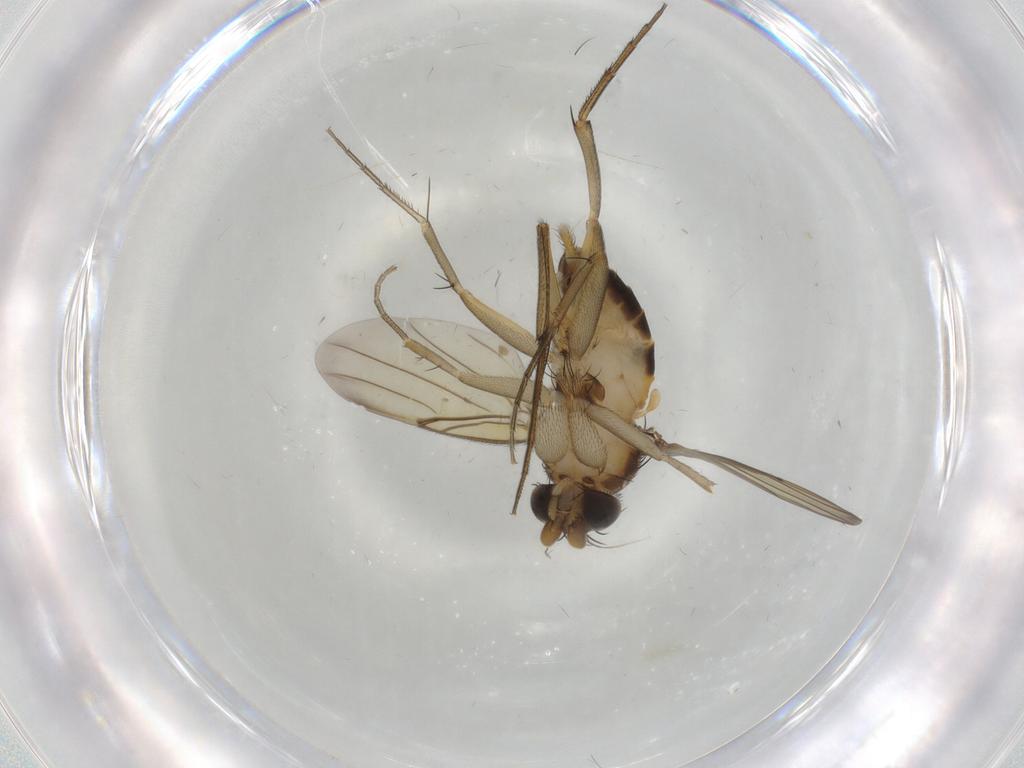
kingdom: Animalia
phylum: Arthropoda
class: Insecta
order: Diptera
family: Phoridae
